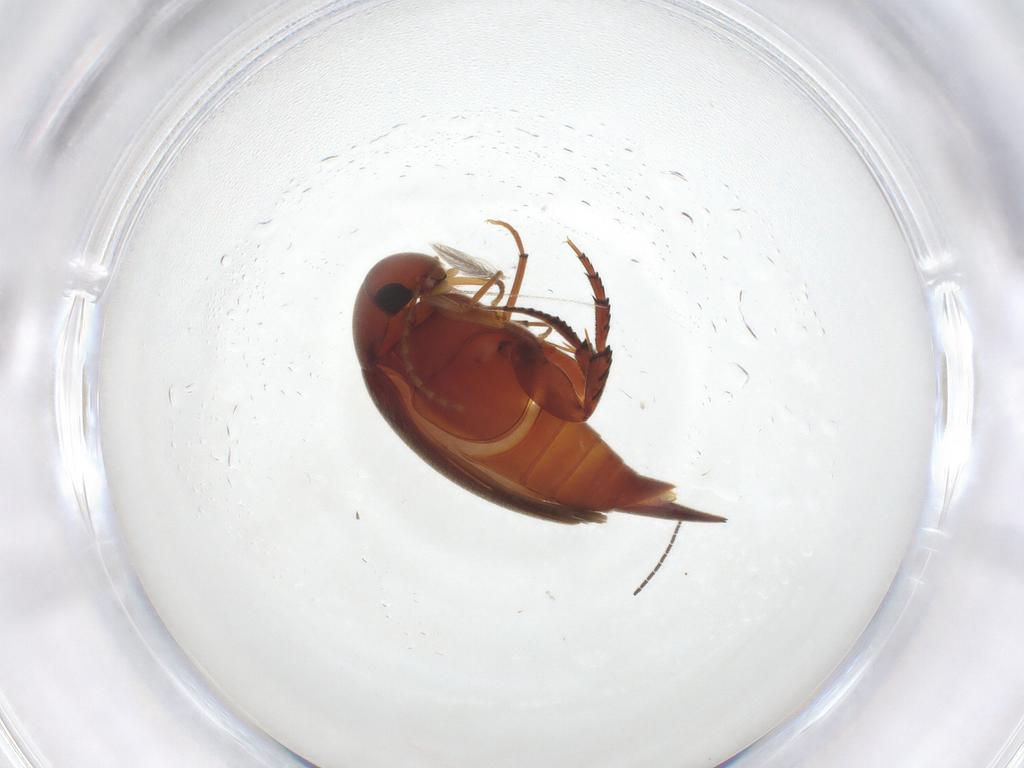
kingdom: Animalia
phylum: Arthropoda
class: Insecta
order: Coleoptera
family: Mordellidae
